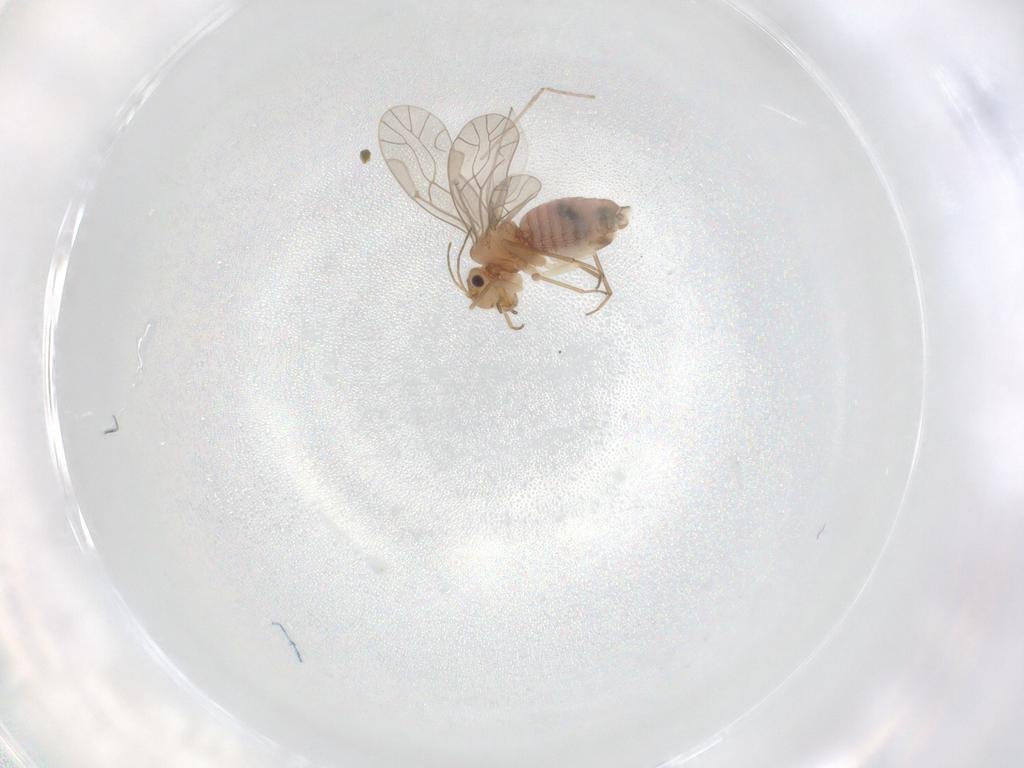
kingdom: Animalia
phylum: Arthropoda
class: Insecta
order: Psocodea
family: Lachesillidae
